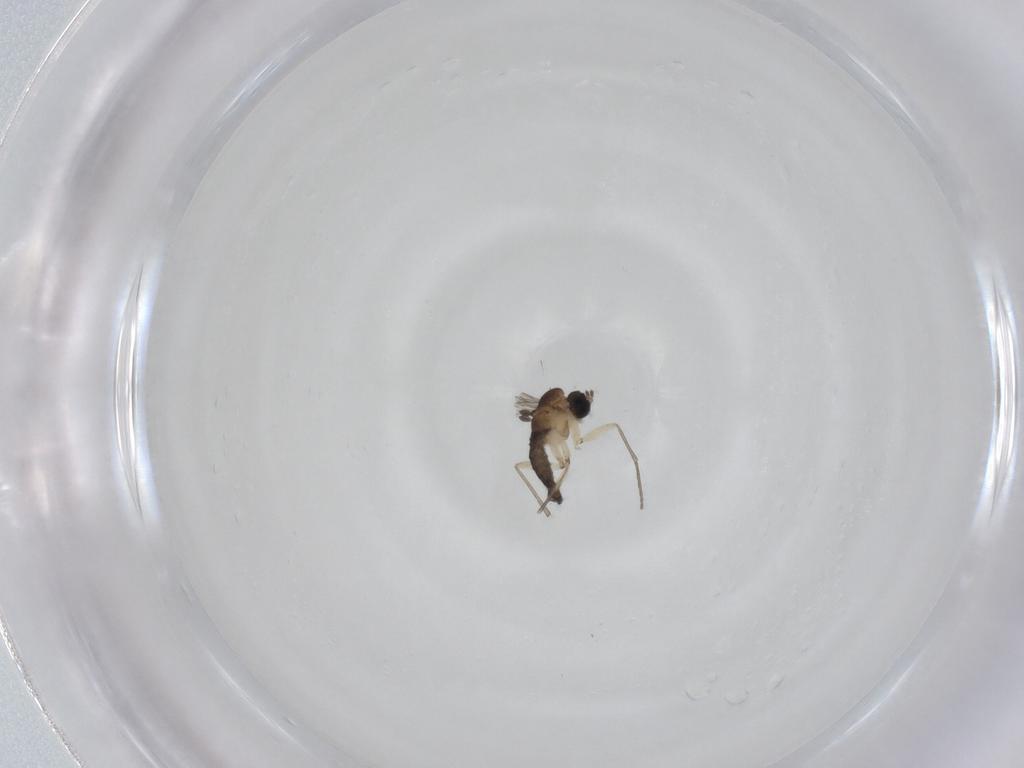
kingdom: Animalia
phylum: Arthropoda
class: Insecta
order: Diptera
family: Sciaridae
